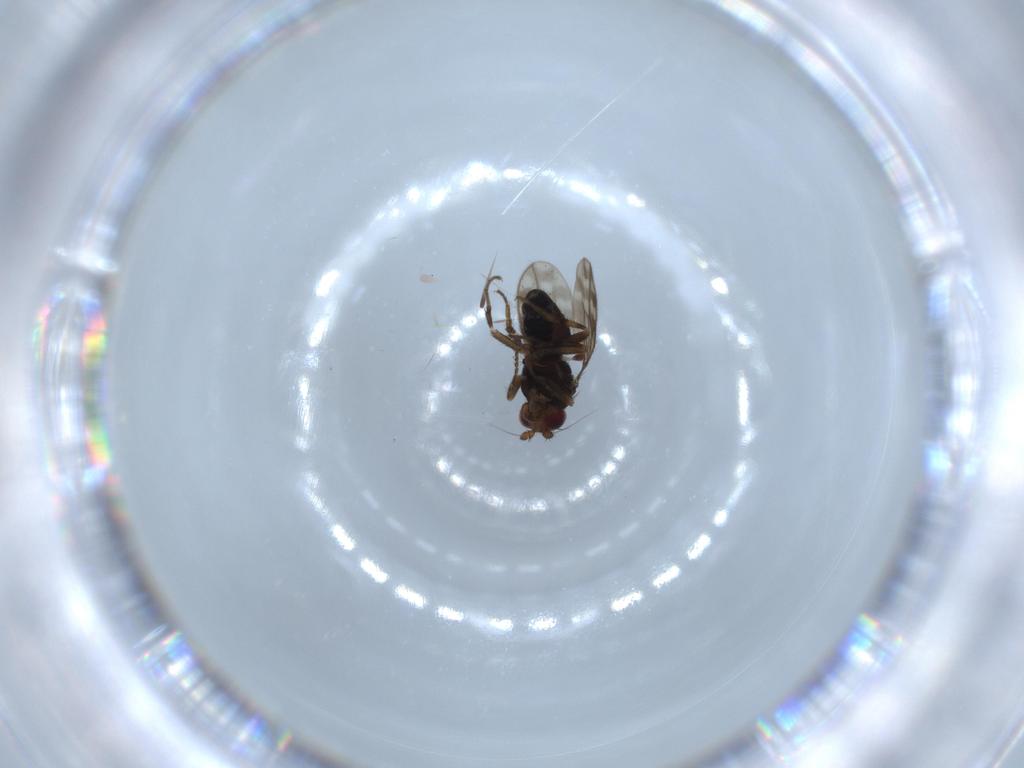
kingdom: Animalia
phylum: Arthropoda
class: Insecta
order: Diptera
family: Sphaeroceridae
